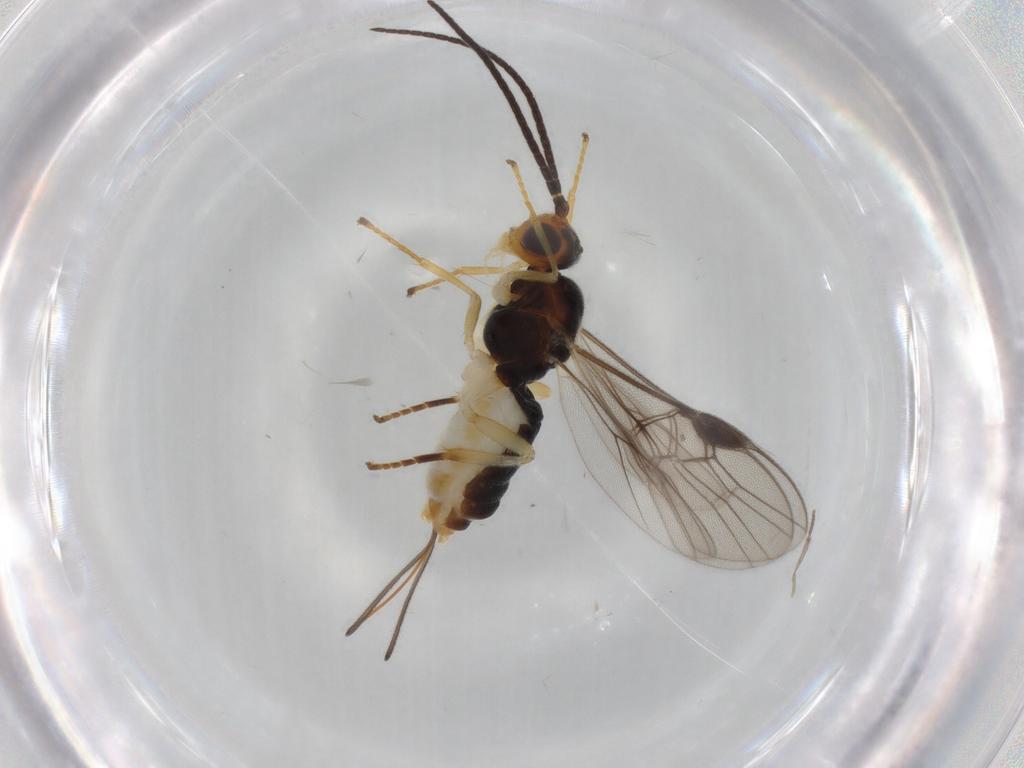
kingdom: Animalia
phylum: Arthropoda
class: Insecta
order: Hymenoptera
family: Braconidae
